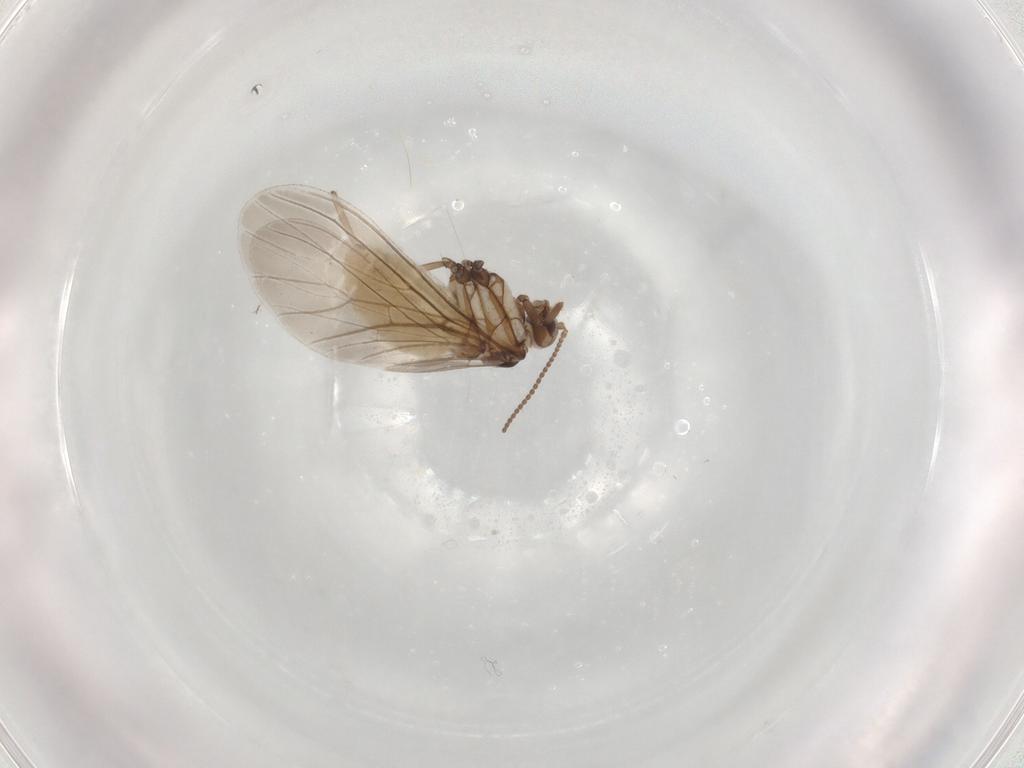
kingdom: Animalia
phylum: Arthropoda
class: Insecta
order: Neuroptera
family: Coniopterygidae
